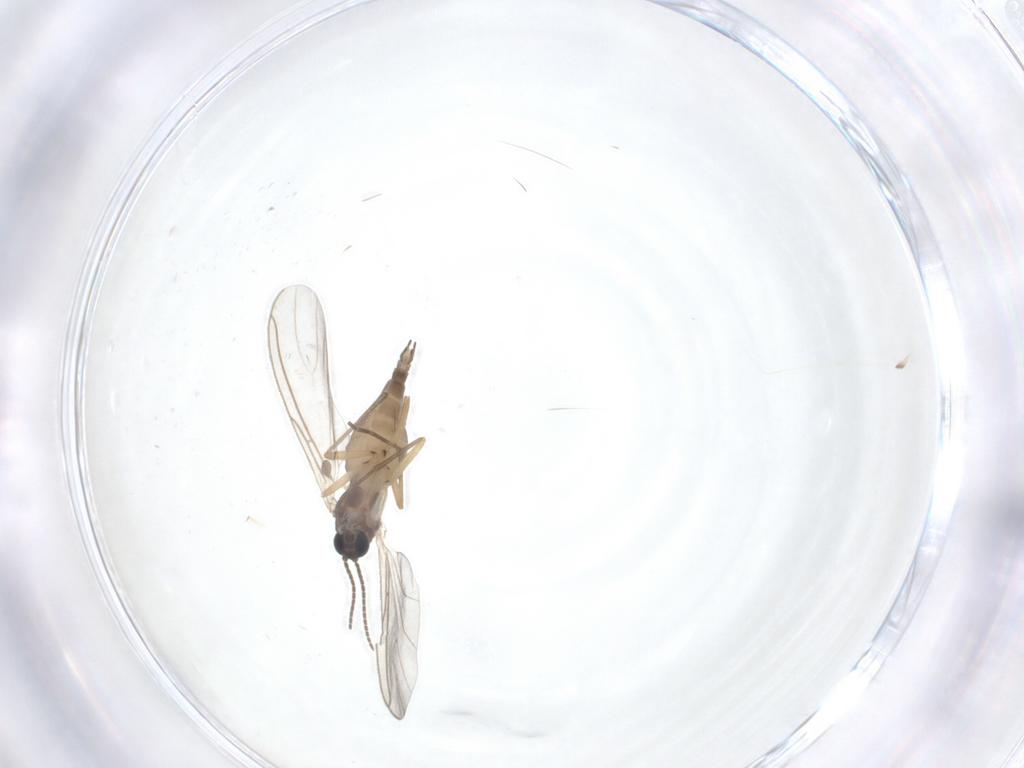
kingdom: Animalia
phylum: Arthropoda
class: Insecta
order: Diptera
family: Sciaridae
